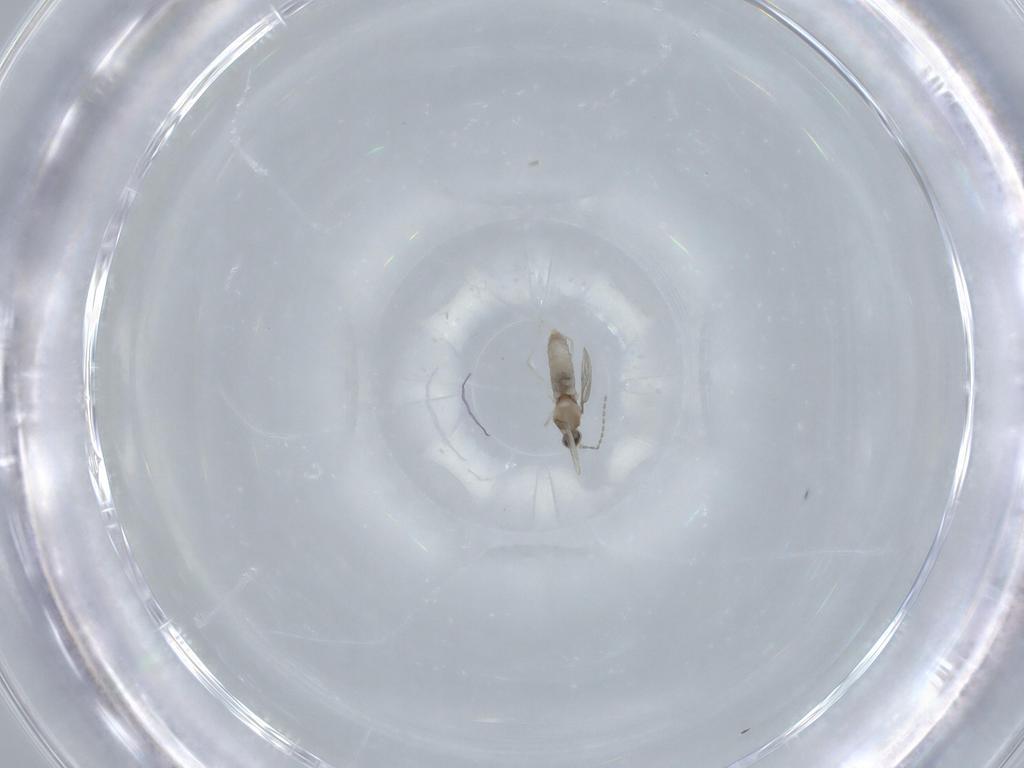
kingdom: Animalia
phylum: Arthropoda
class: Insecta
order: Diptera
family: Cecidomyiidae
